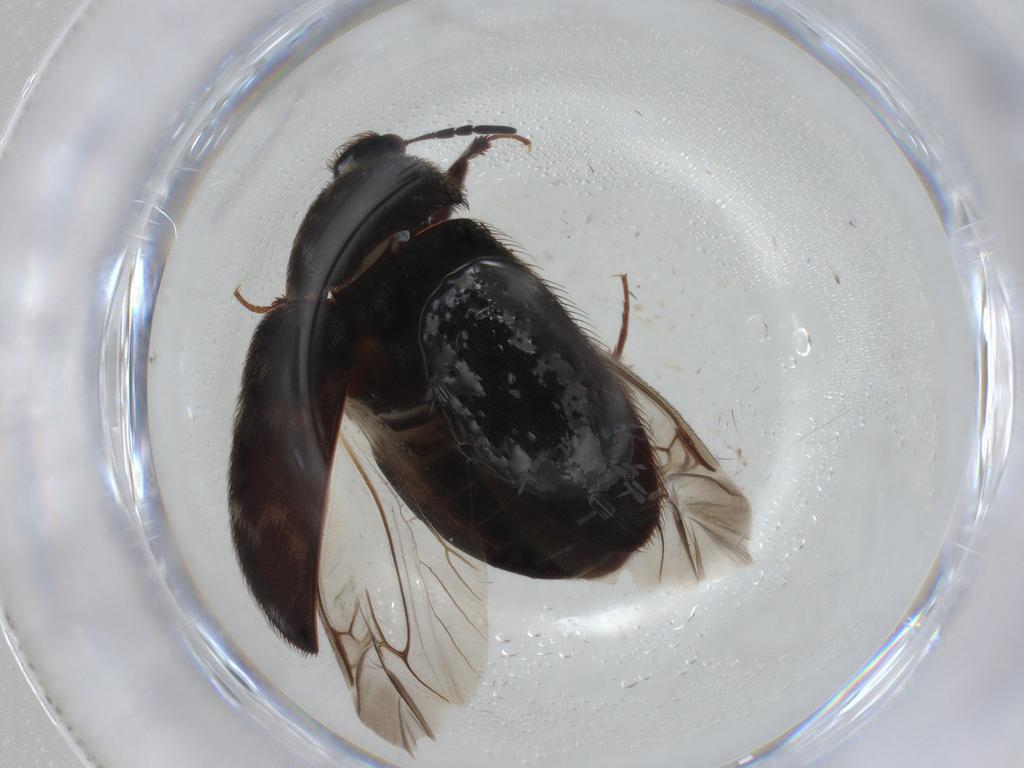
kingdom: Animalia
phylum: Arthropoda
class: Insecta
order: Coleoptera
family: Dermestidae
